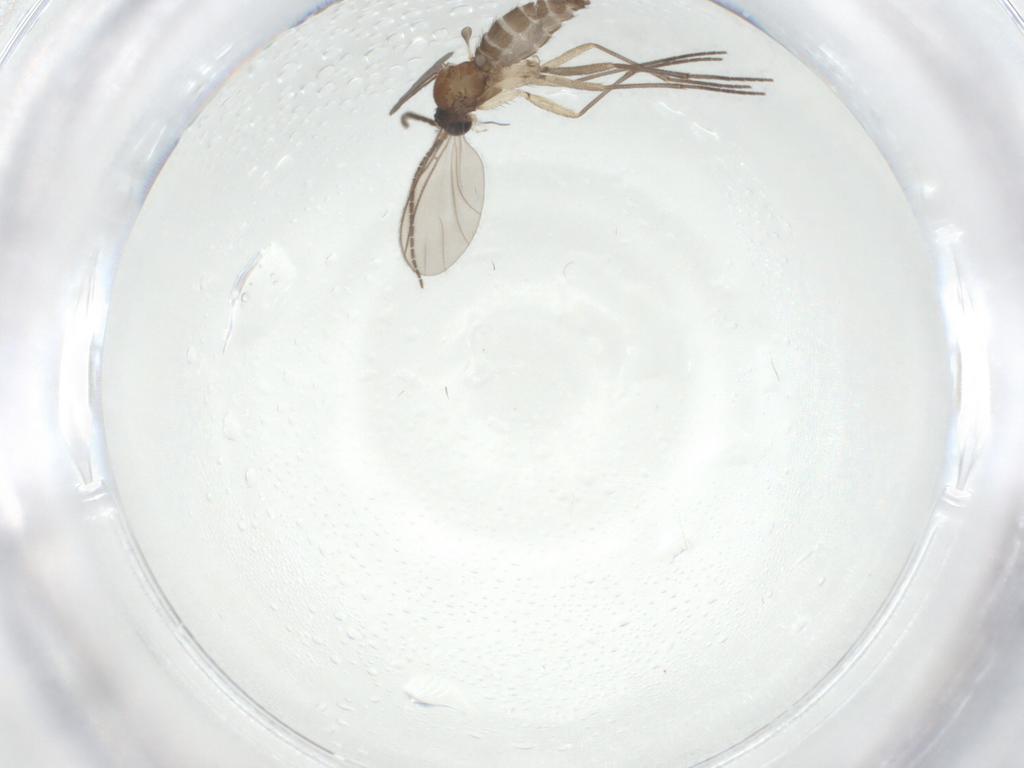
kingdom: Animalia
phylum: Arthropoda
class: Insecta
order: Diptera
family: Sciaridae
